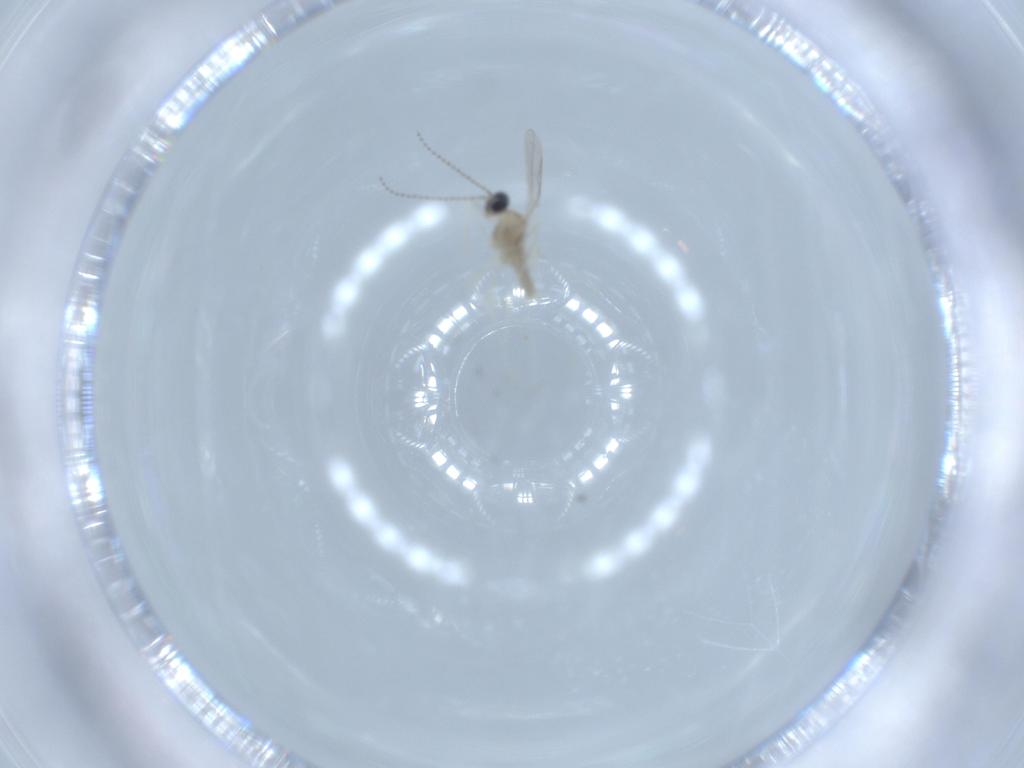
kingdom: Animalia
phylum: Arthropoda
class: Insecta
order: Diptera
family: Cecidomyiidae
